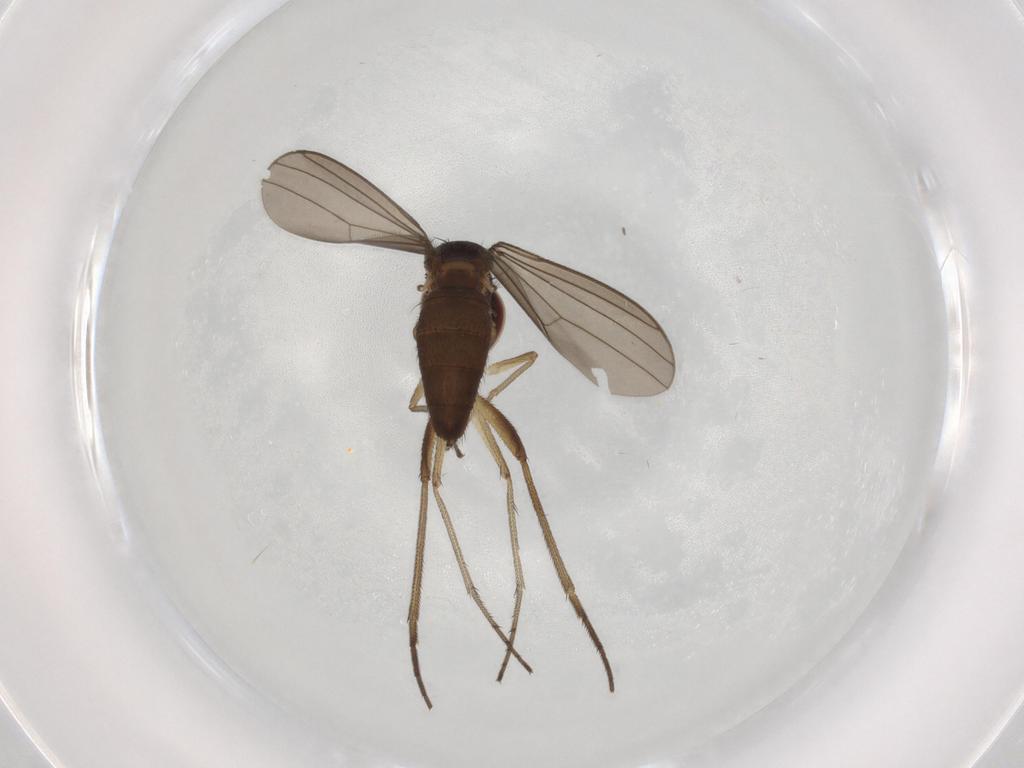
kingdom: Animalia
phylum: Arthropoda
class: Insecta
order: Diptera
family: Dolichopodidae
